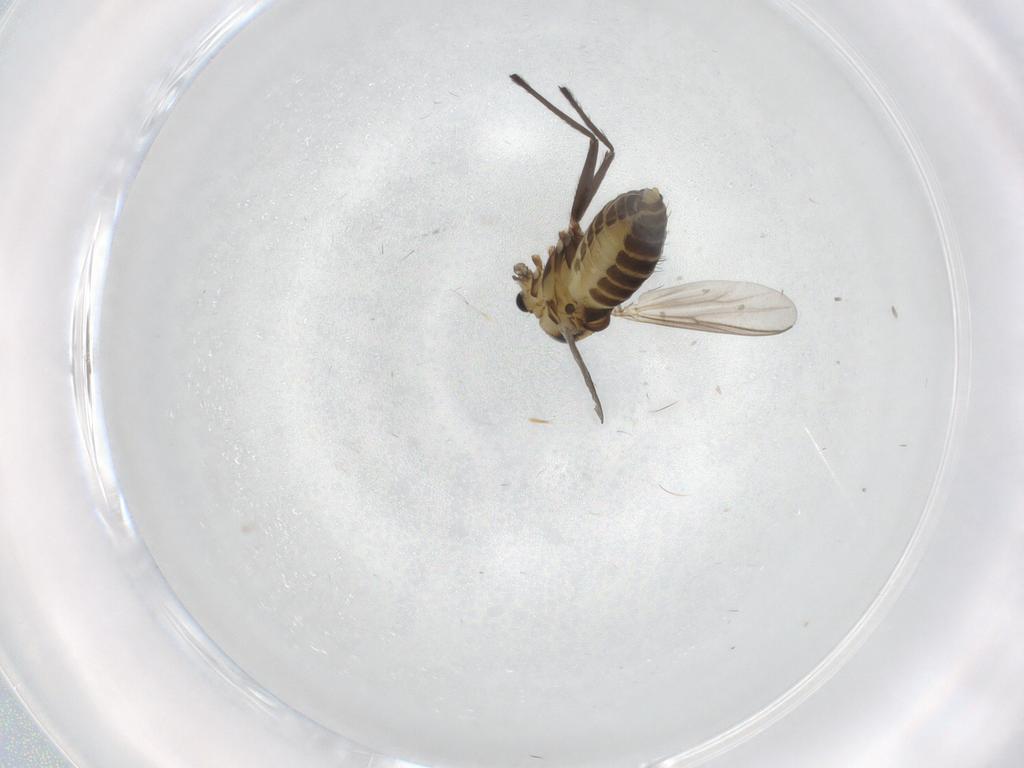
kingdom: Animalia
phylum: Arthropoda
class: Insecta
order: Diptera
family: Chironomidae
